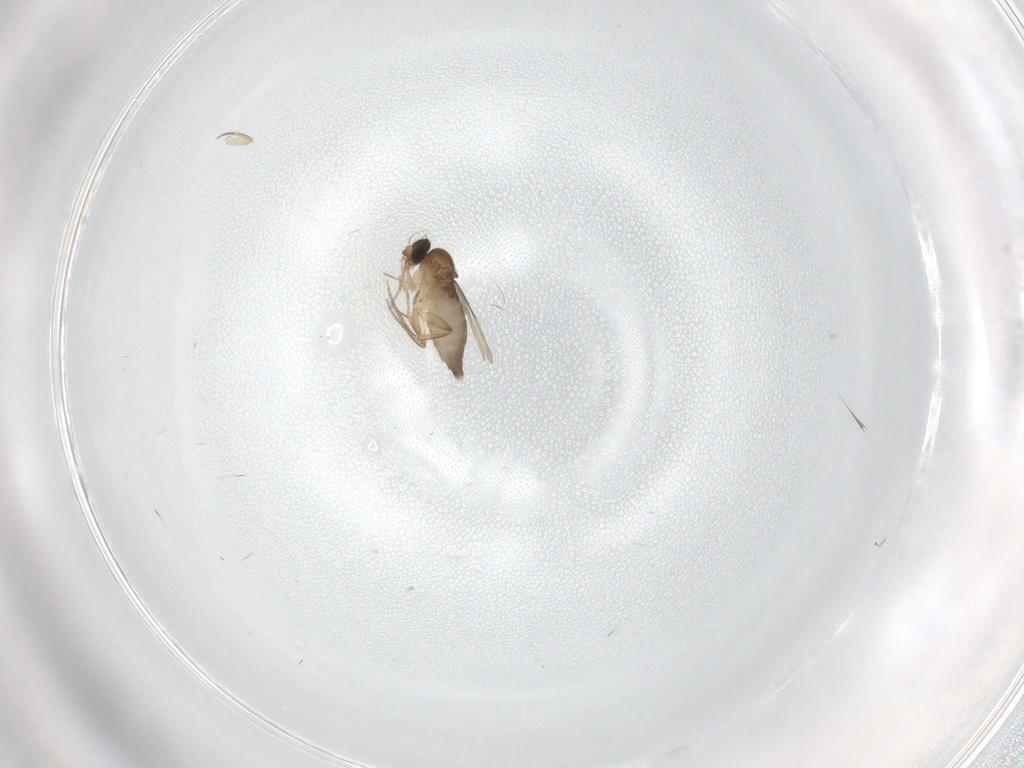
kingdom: Animalia
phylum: Arthropoda
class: Insecta
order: Diptera
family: Phoridae
